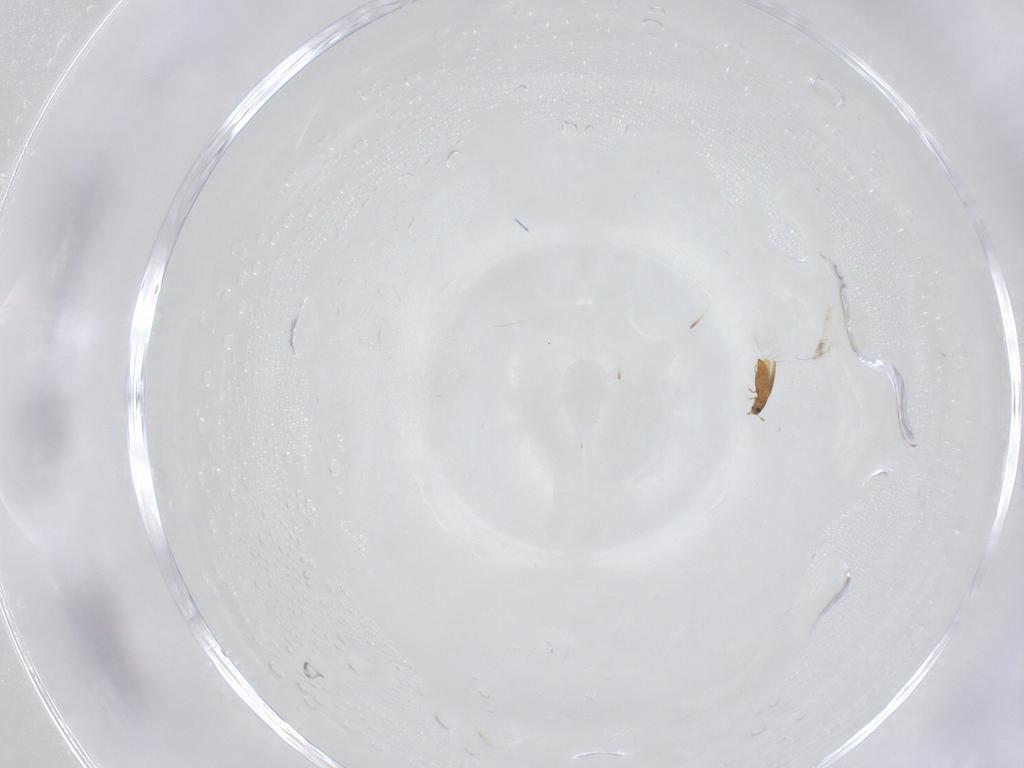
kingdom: Animalia
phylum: Arthropoda
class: Insecta
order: Coleoptera
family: Ptiliidae
